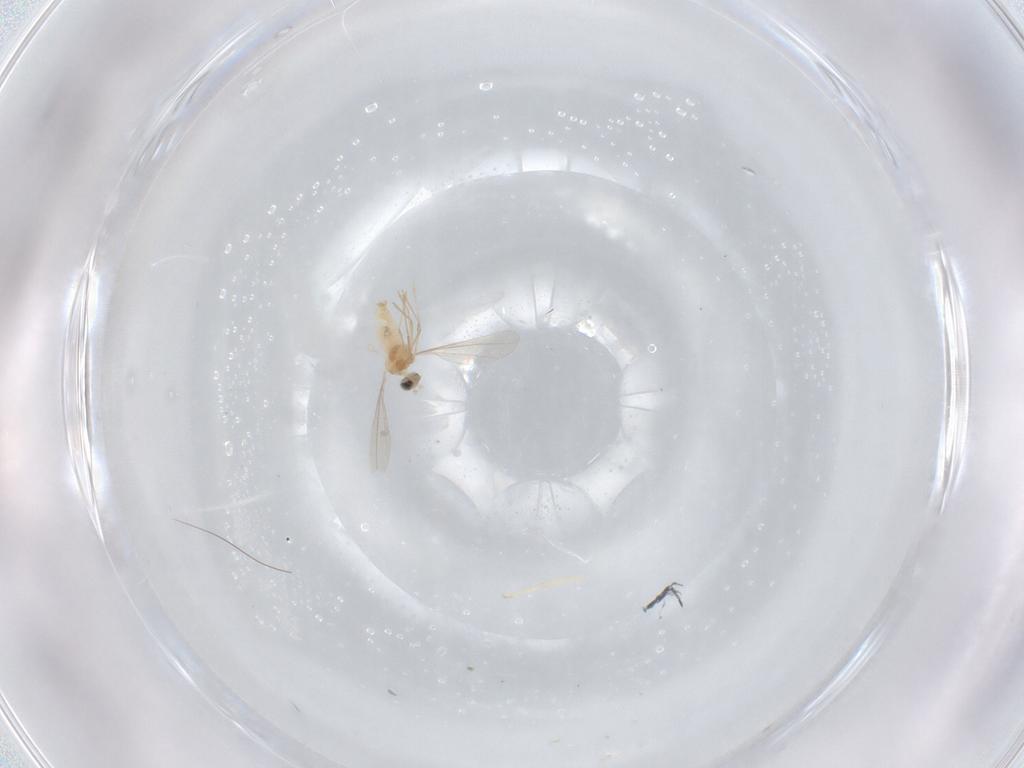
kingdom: Animalia
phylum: Arthropoda
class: Insecta
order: Diptera
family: Cecidomyiidae
